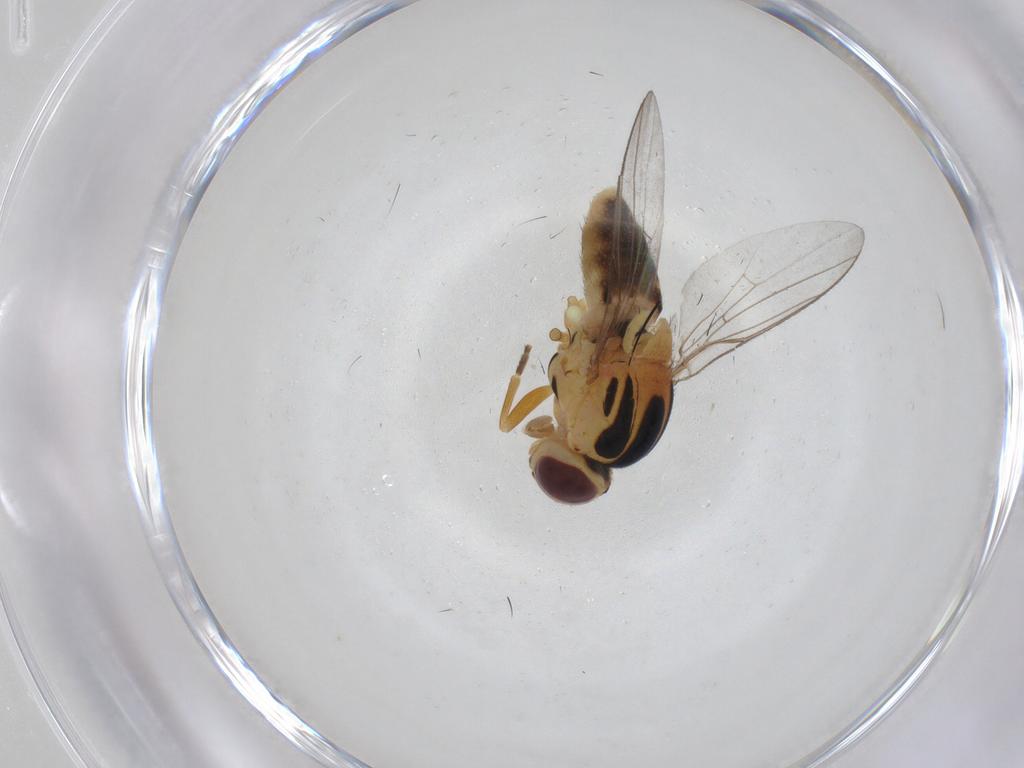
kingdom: Animalia
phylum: Arthropoda
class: Insecta
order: Diptera
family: Chloropidae
